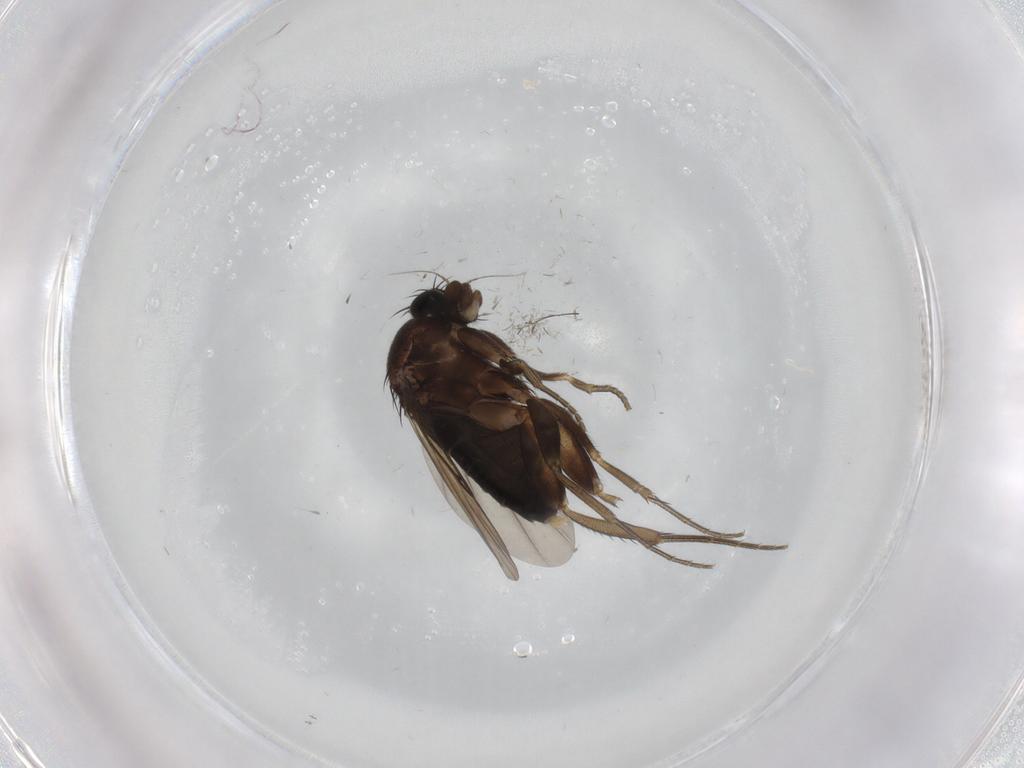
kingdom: Animalia
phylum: Arthropoda
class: Insecta
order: Diptera
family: Phoridae
